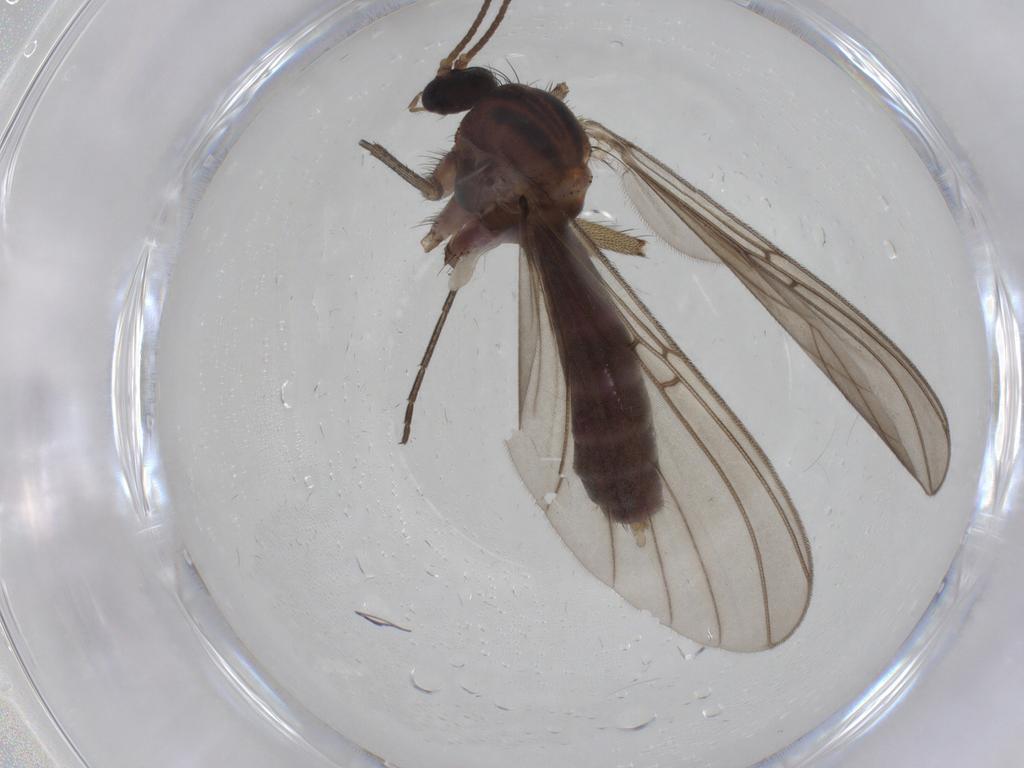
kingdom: Animalia
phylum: Arthropoda
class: Insecta
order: Diptera
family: Mycetophilidae
